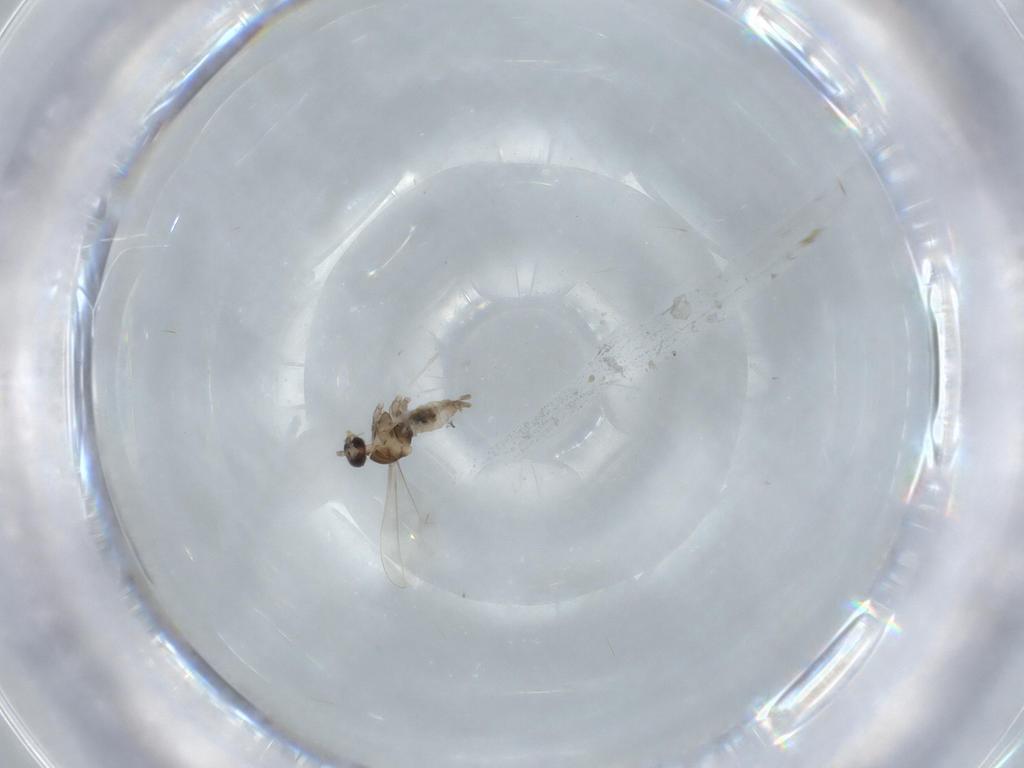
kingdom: Animalia
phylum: Arthropoda
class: Insecta
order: Diptera
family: Cecidomyiidae
